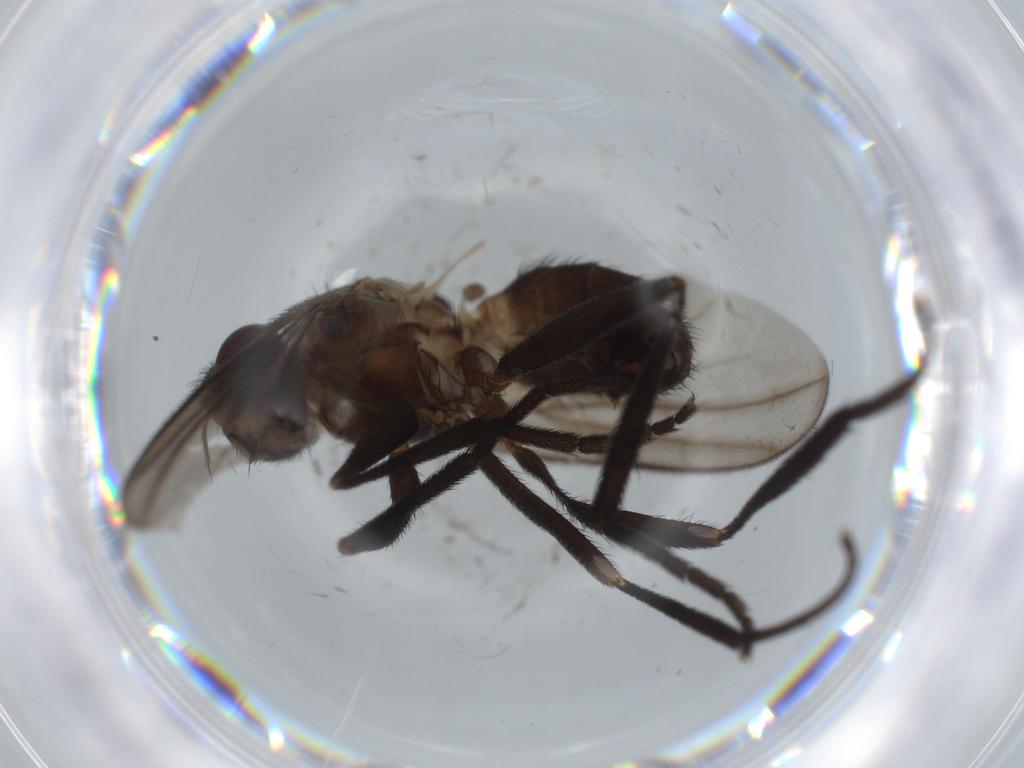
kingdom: Animalia
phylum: Arthropoda
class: Insecta
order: Diptera
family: Calliphoridae
